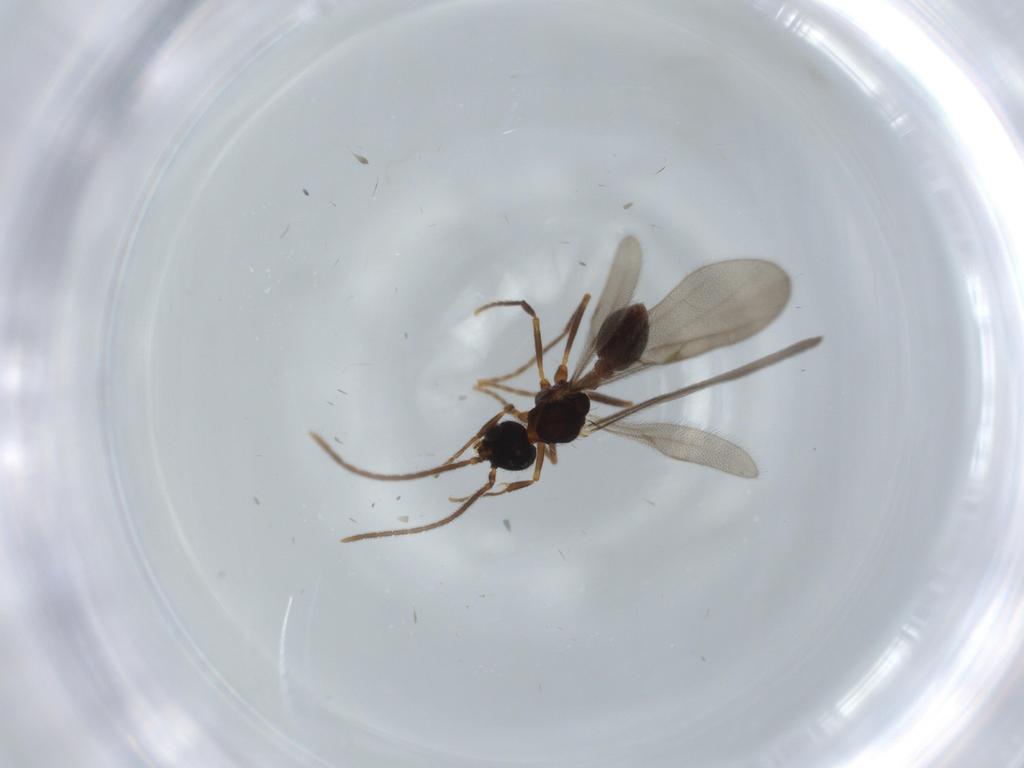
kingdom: Animalia
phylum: Arthropoda
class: Insecta
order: Hymenoptera
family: Formicidae
